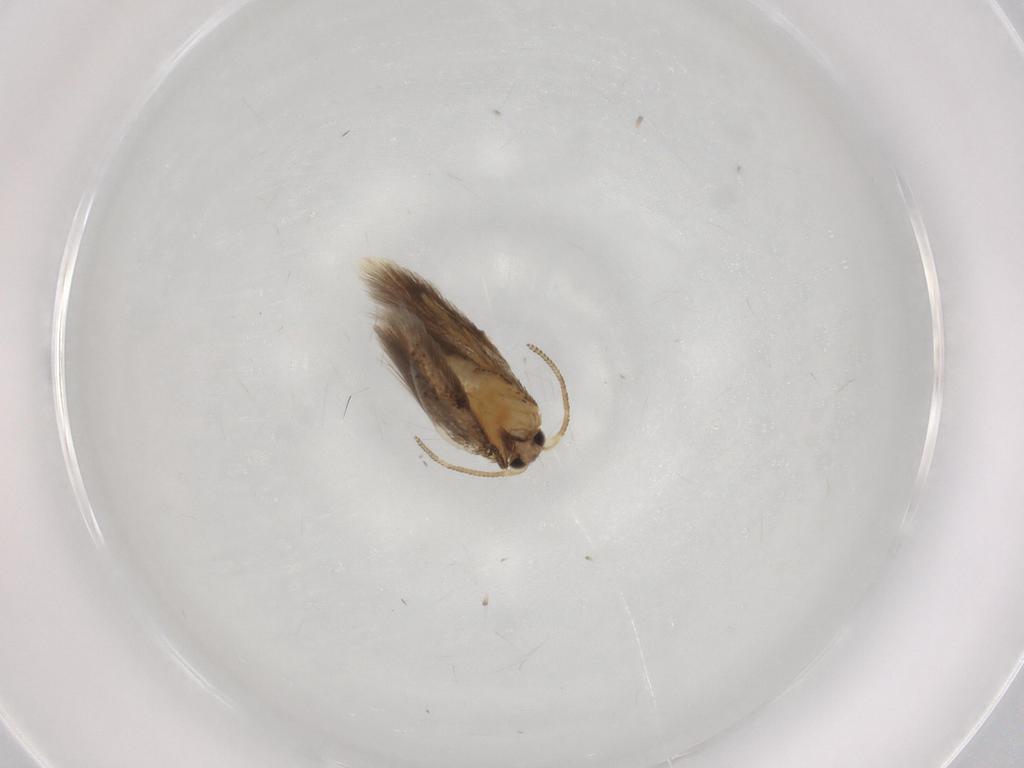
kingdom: Animalia
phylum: Arthropoda
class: Insecta
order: Lepidoptera
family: Nepticulidae
